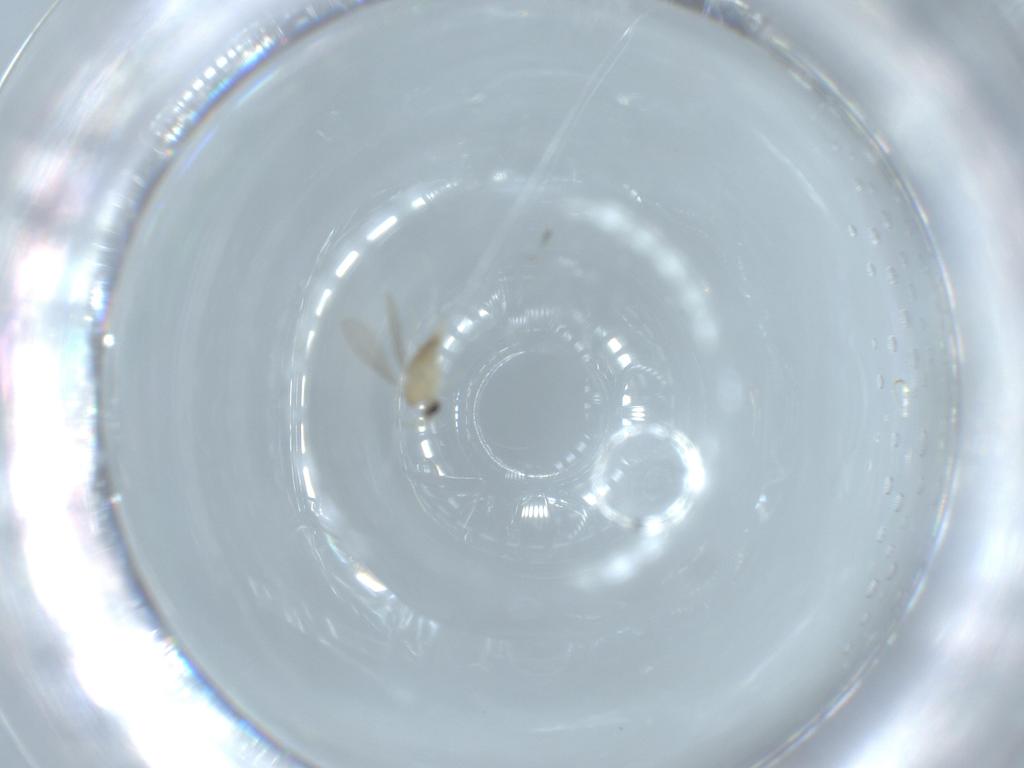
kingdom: Animalia
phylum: Arthropoda
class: Insecta
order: Diptera
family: Cecidomyiidae
